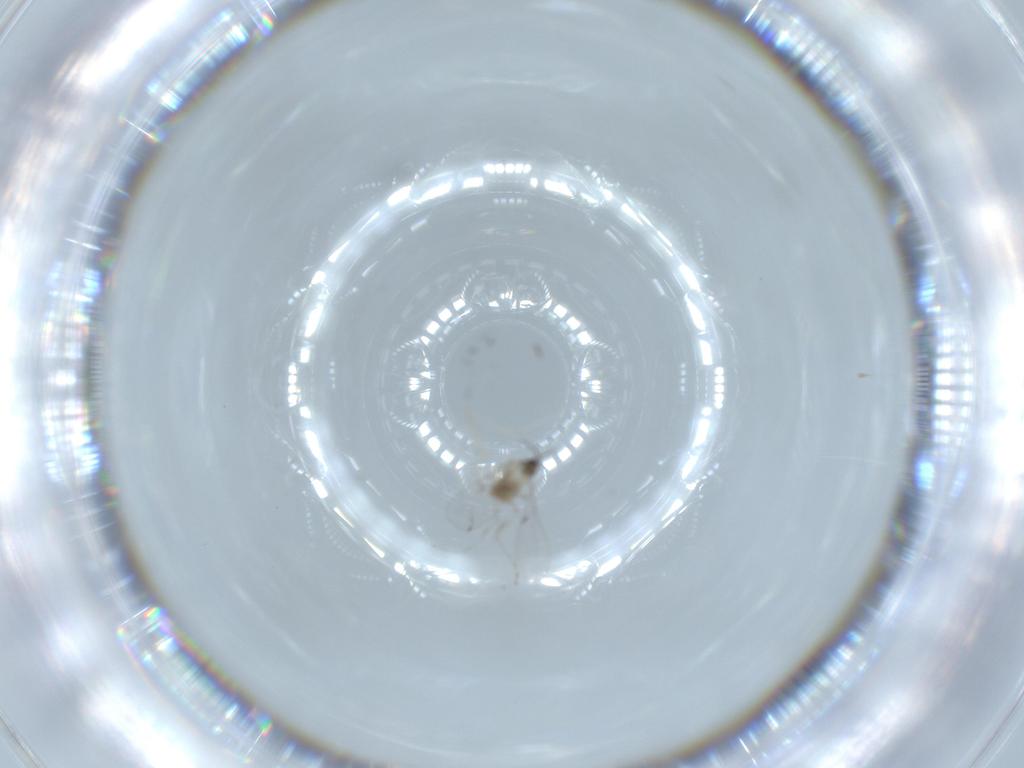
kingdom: Animalia
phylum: Arthropoda
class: Insecta
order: Diptera
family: Cecidomyiidae
